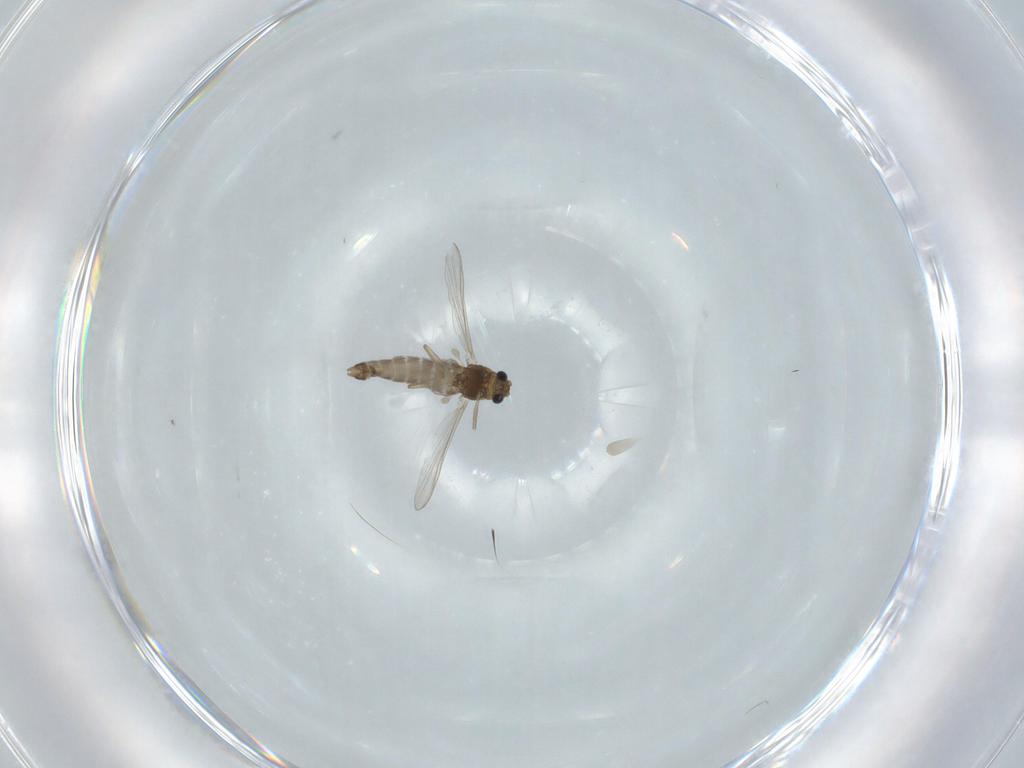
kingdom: Animalia
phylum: Arthropoda
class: Insecta
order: Diptera
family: Chironomidae
